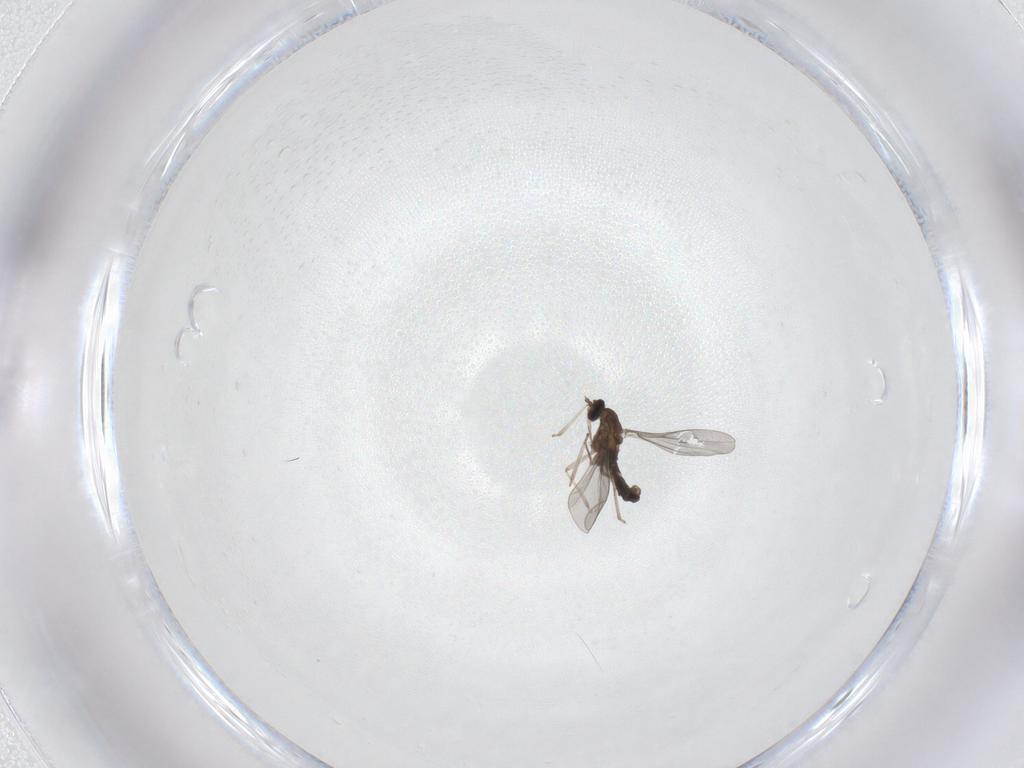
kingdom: Animalia
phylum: Arthropoda
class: Insecta
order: Diptera
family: Cecidomyiidae
